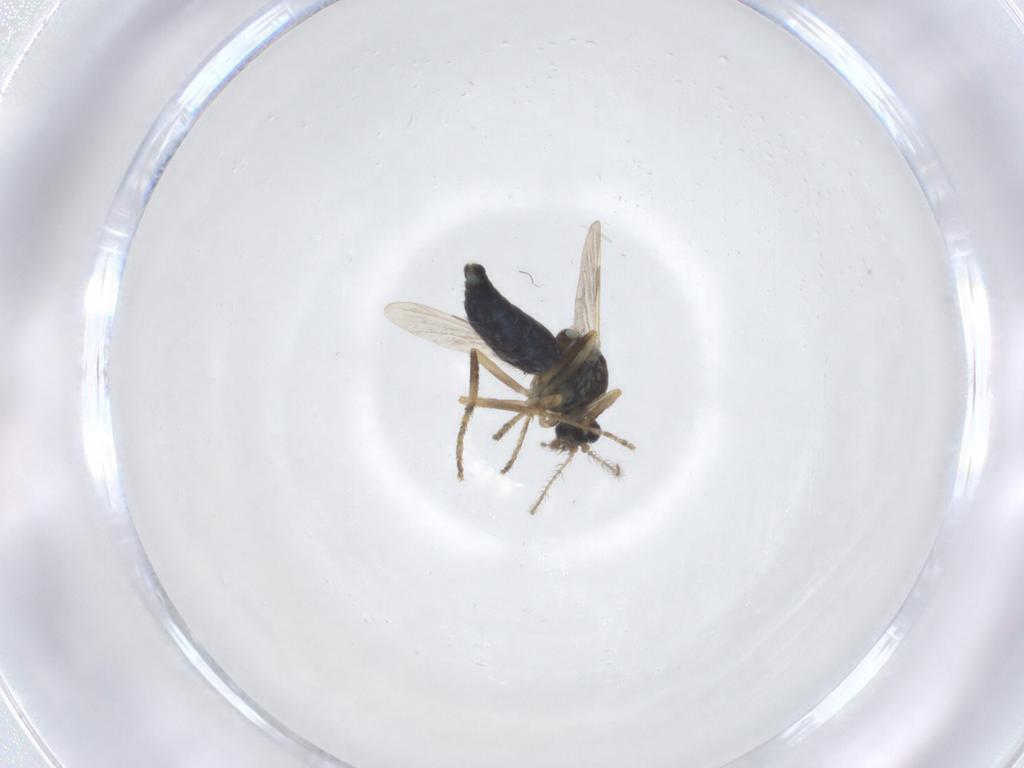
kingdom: Animalia
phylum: Arthropoda
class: Insecta
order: Diptera
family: Ceratopogonidae
